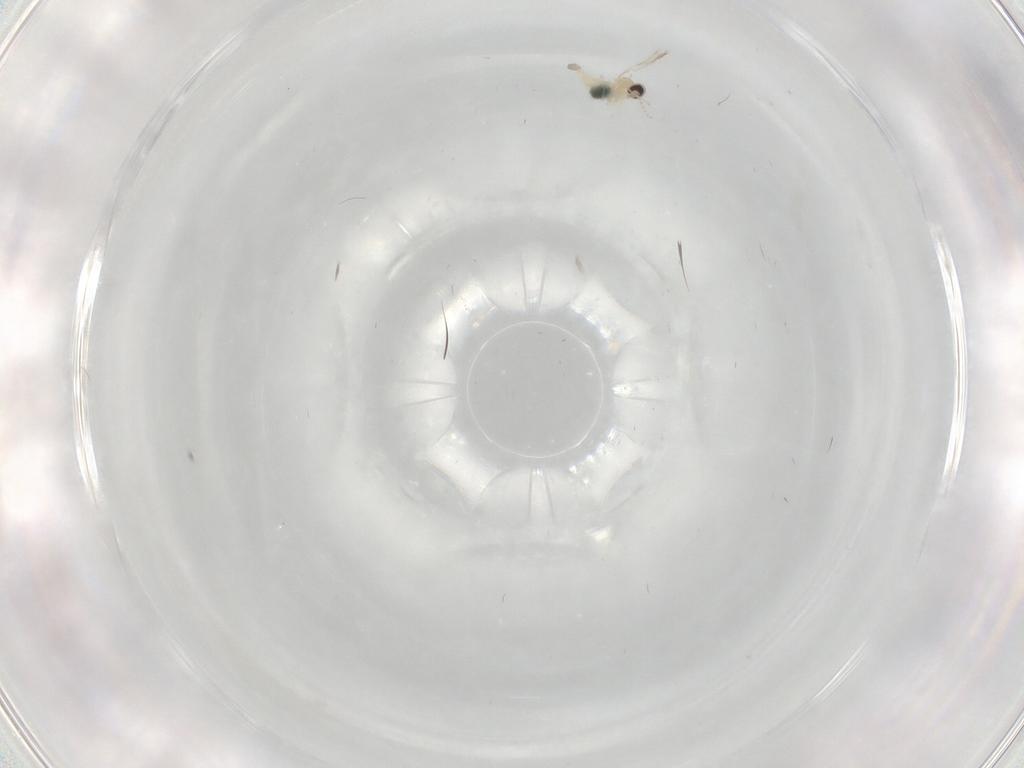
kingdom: Animalia
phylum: Arthropoda
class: Insecta
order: Diptera
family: Cecidomyiidae
